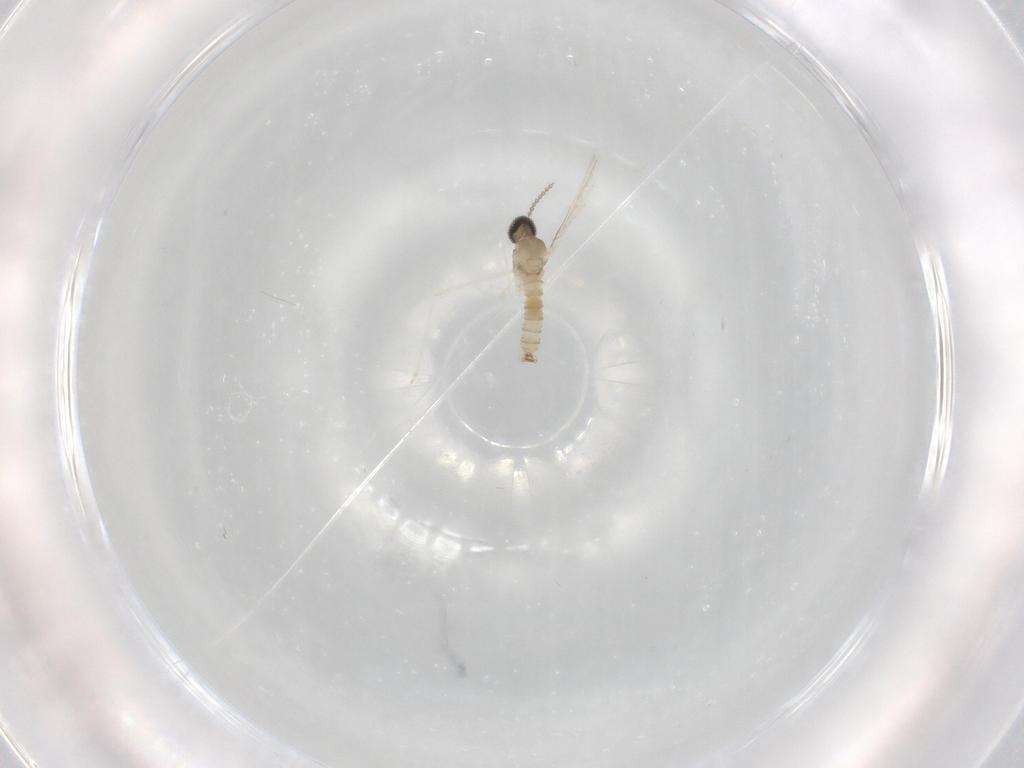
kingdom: Animalia
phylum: Arthropoda
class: Insecta
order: Diptera
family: Cecidomyiidae
